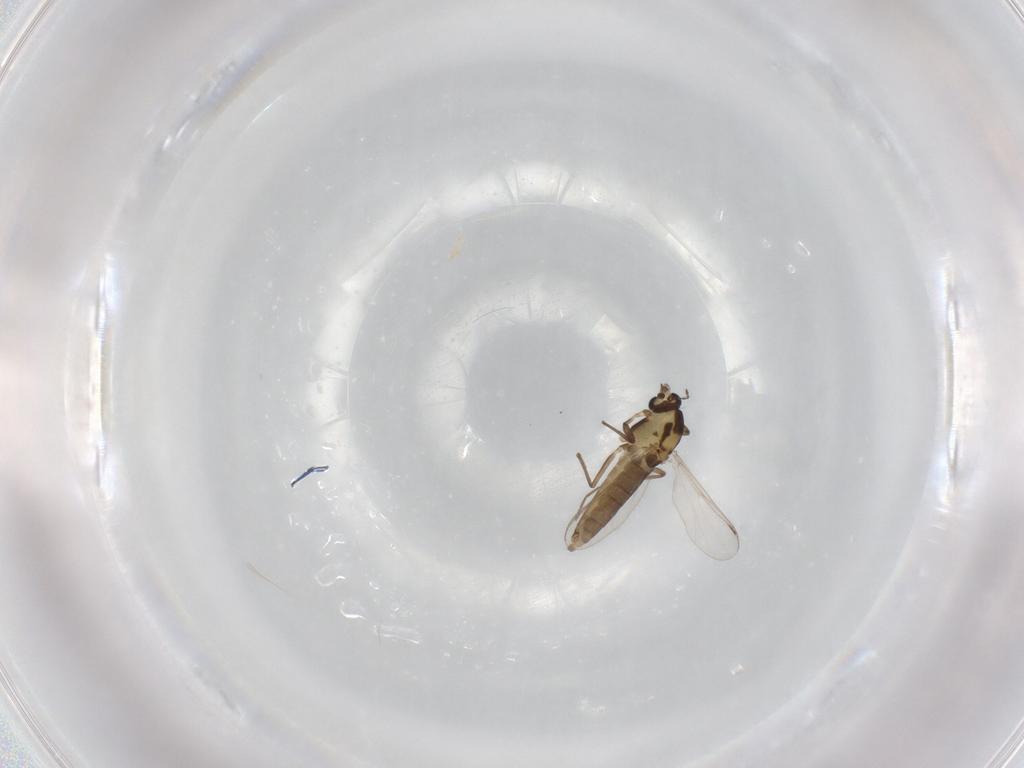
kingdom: Animalia
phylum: Arthropoda
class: Insecta
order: Diptera
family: Chironomidae
